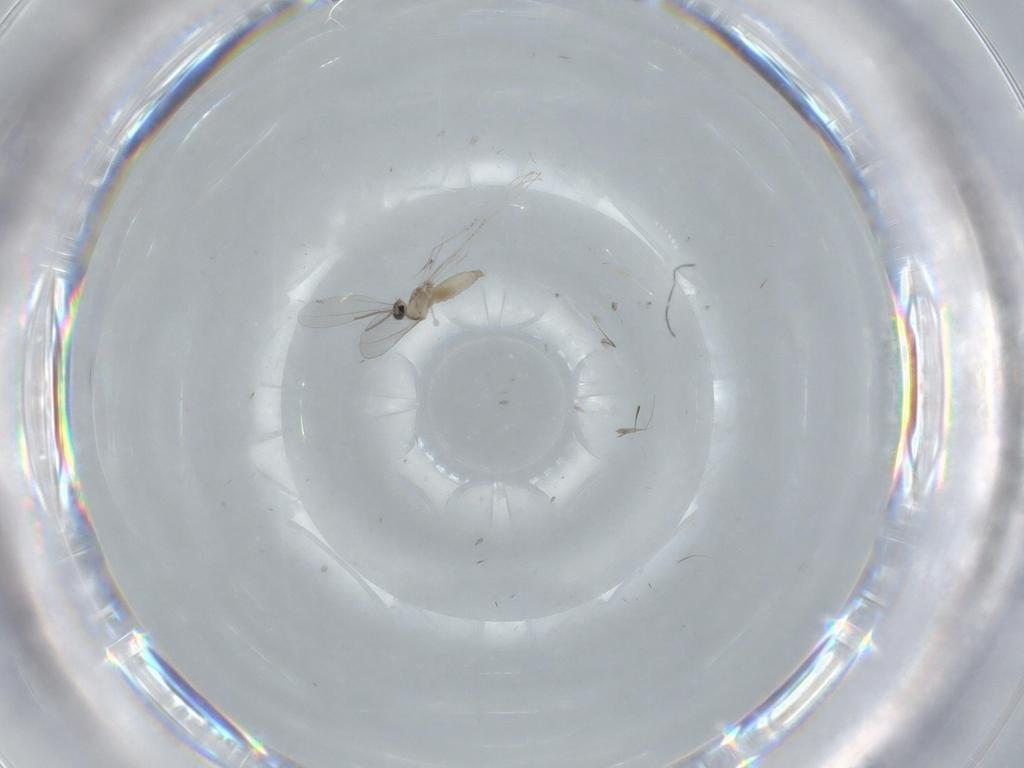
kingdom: Animalia
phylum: Arthropoda
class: Insecta
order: Diptera
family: Cecidomyiidae
